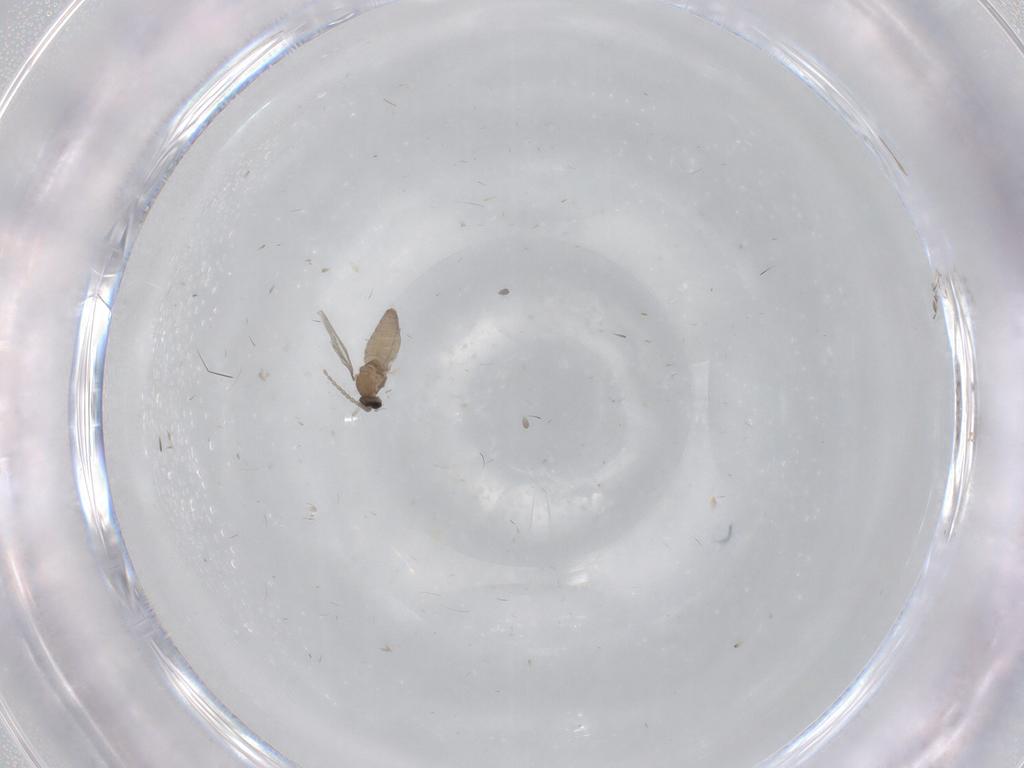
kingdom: Animalia
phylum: Arthropoda
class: Insecta
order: Diptera
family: Cecidomyiidae
